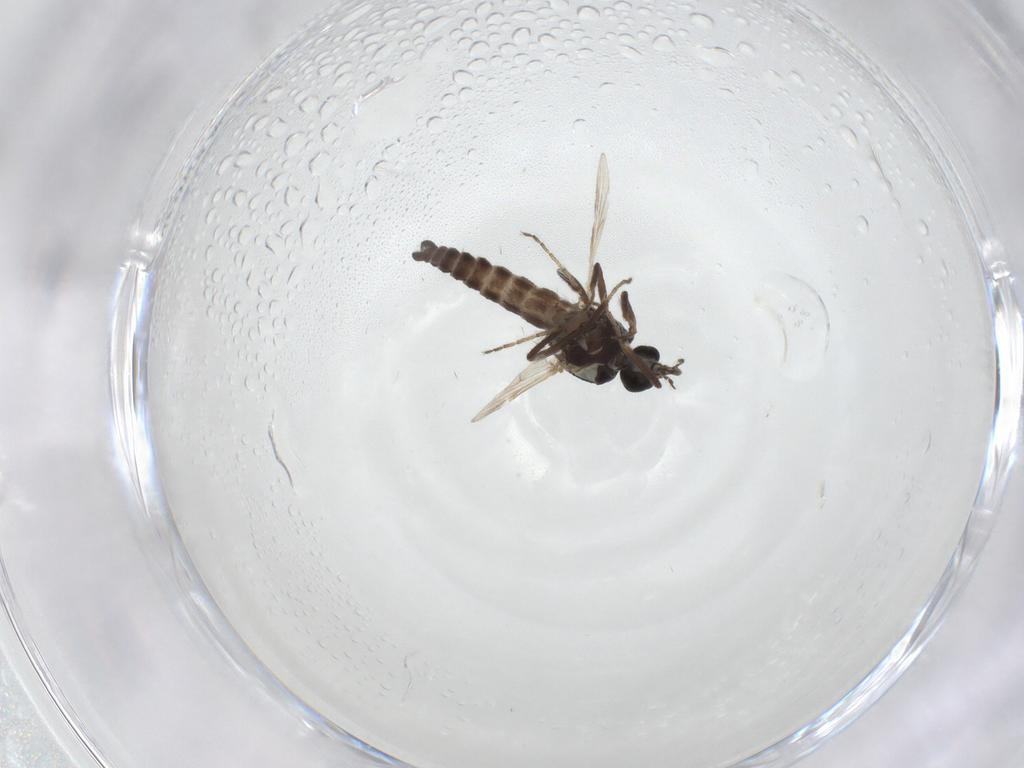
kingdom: Animalia
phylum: Arthropoda
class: Insecta
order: Diptera
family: Ceratopogonidae
